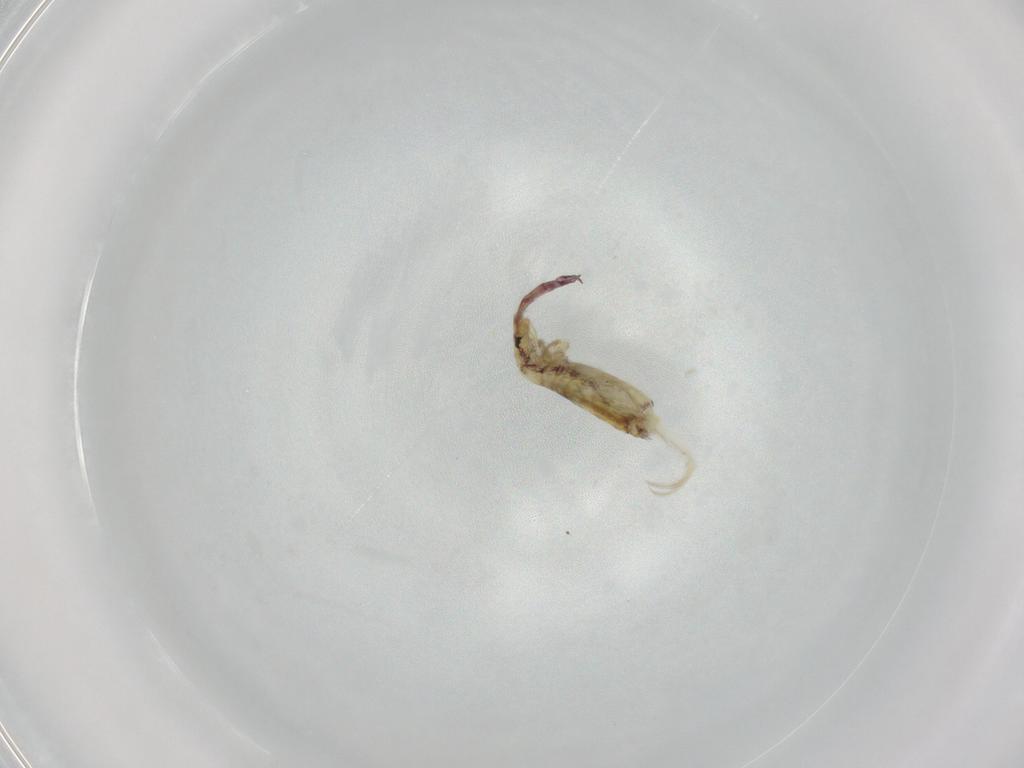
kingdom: Animalia
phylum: Arthropoda
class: Collembola
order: Entomobryomorpha
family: Entomobryidae
